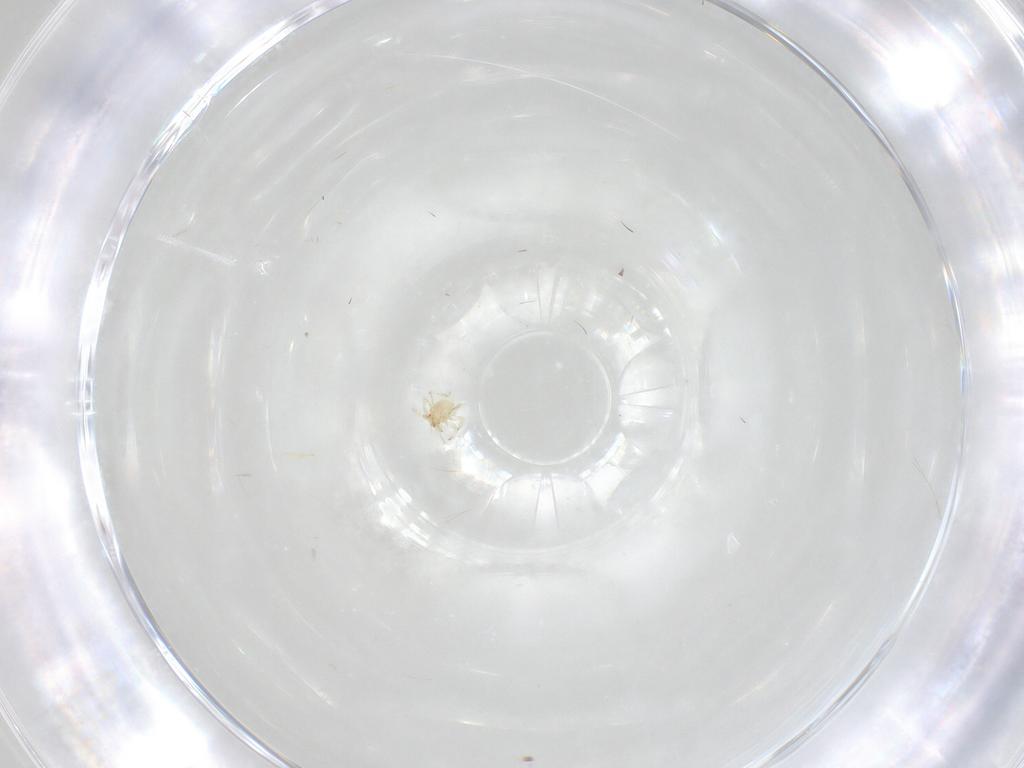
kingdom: Animalia
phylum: Arthropoda
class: Insecta
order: Neuroptera
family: Coniopterygidae
